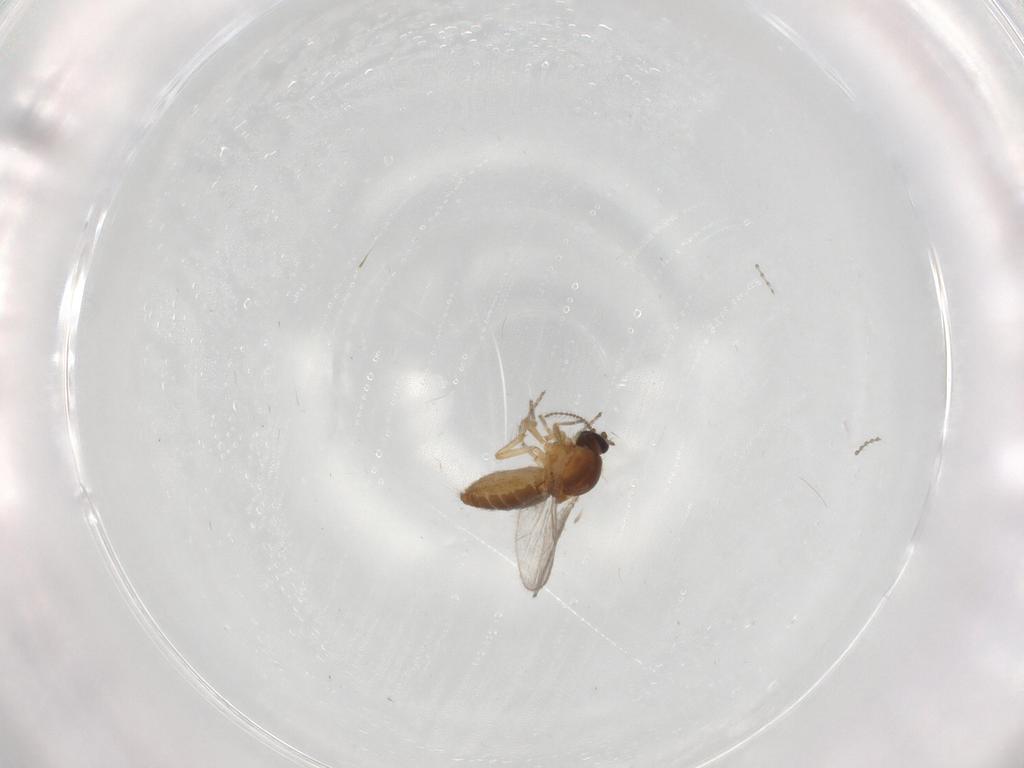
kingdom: Animalia
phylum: Arthropoda
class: Insecta
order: Diptera
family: Ceratopogonidae
